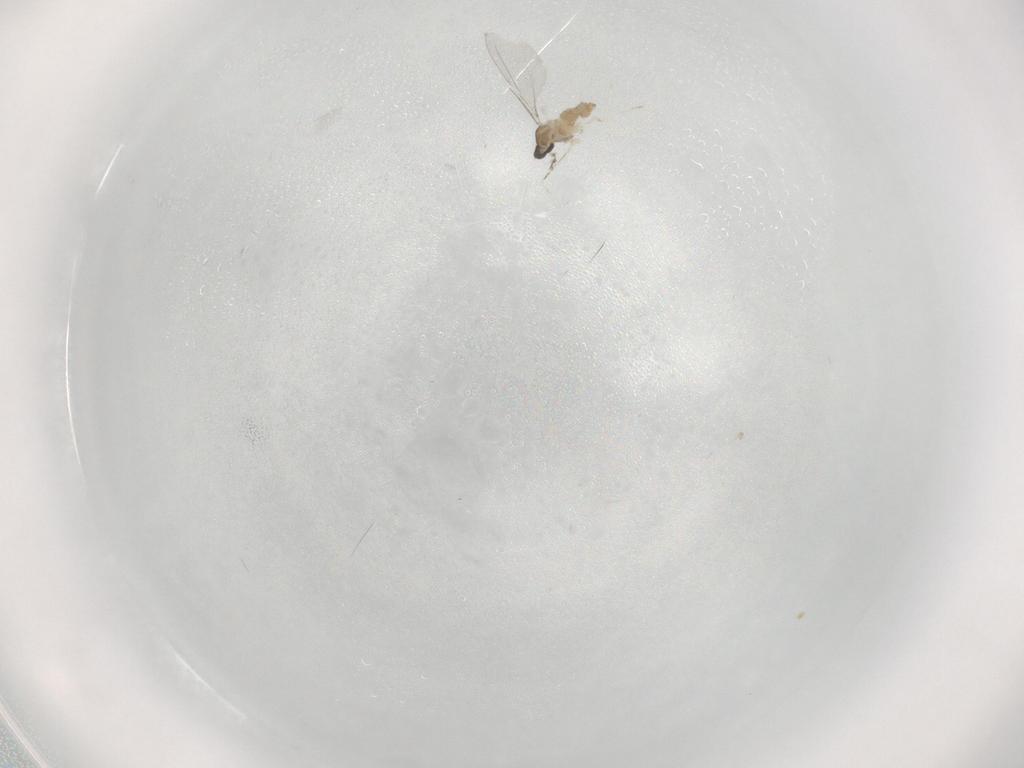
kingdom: Animalia
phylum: Arthropoda
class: Insecta
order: Diptera
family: Cecidomyiidae
